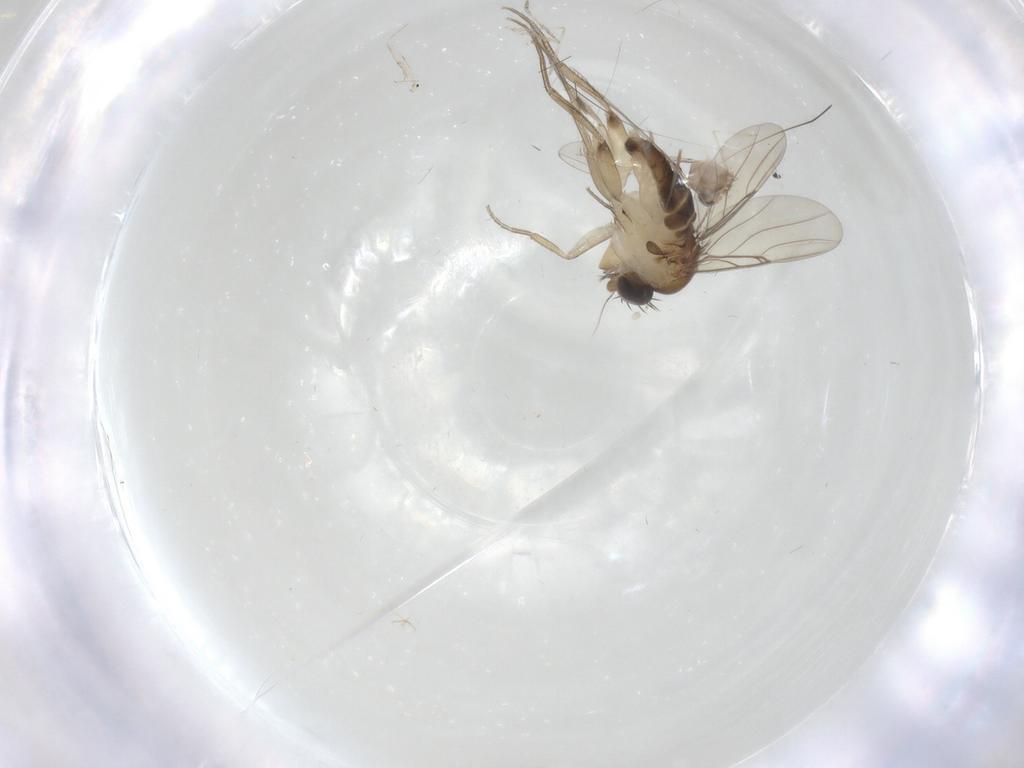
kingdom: Animalia
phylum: Arthropoda
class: Insecta
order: Diptera
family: Phoridae
